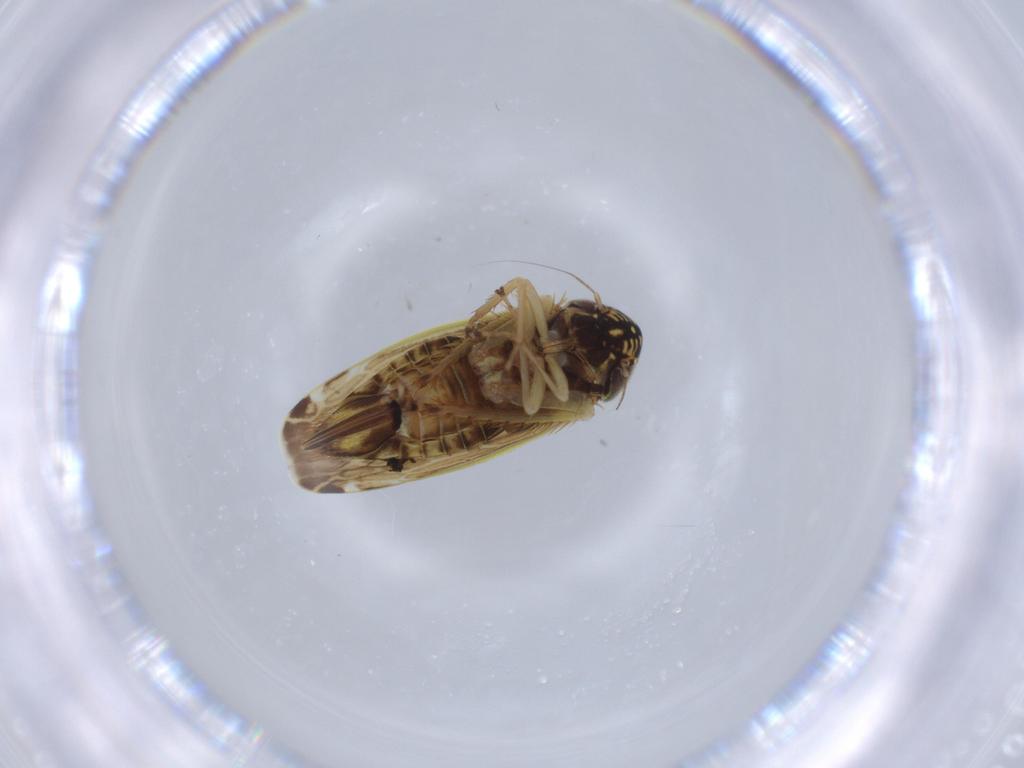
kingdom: Animalia
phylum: Arthropoda
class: Insecta
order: Hemiptera
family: Cicadellidae
